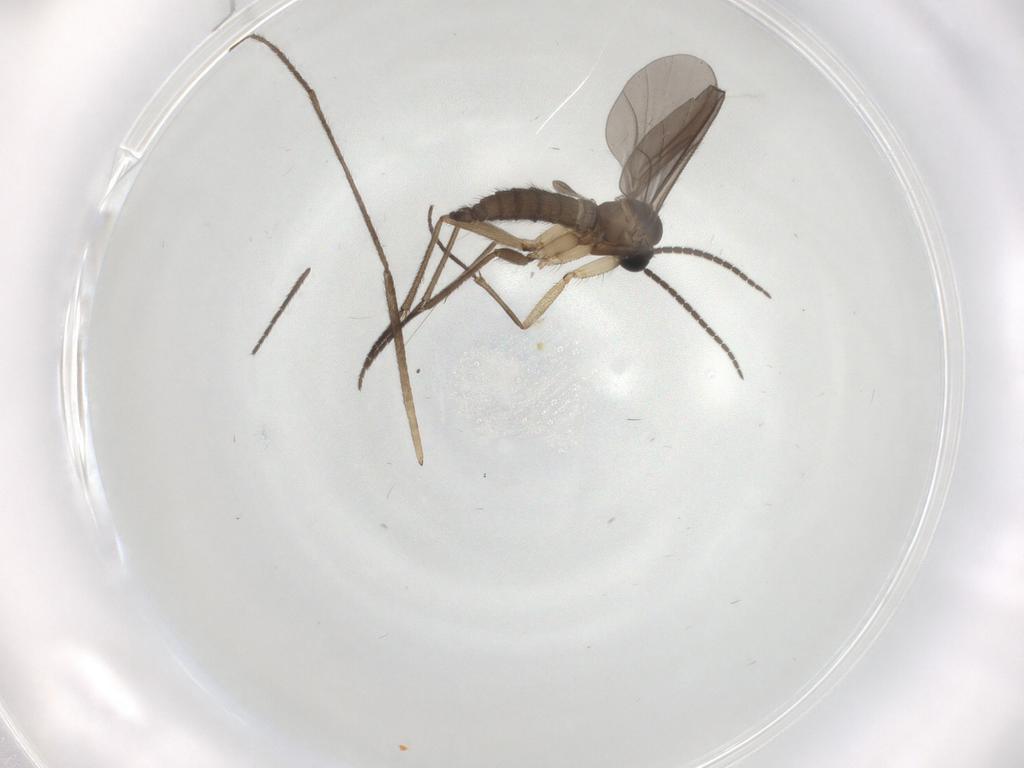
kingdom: Animalia
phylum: Arthropoda
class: Insecta
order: Diptera
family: Sciaridae
